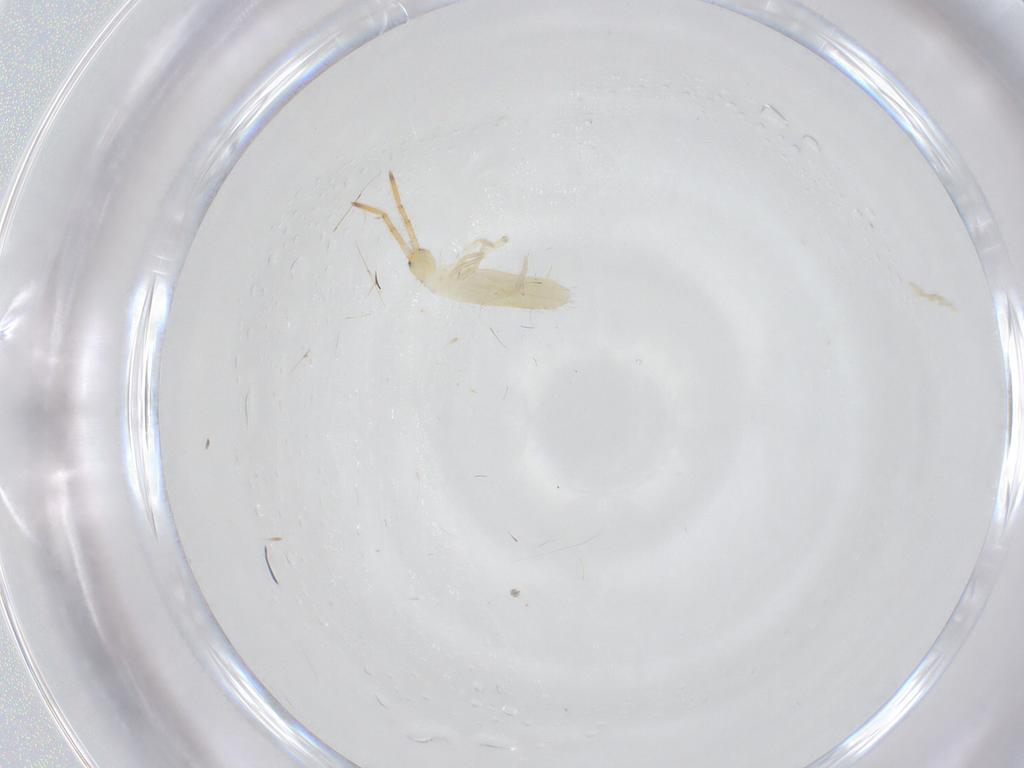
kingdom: Animalia
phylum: Arthropoda
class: Collembola
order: Entomobryomorpha
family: Entomobryidae
